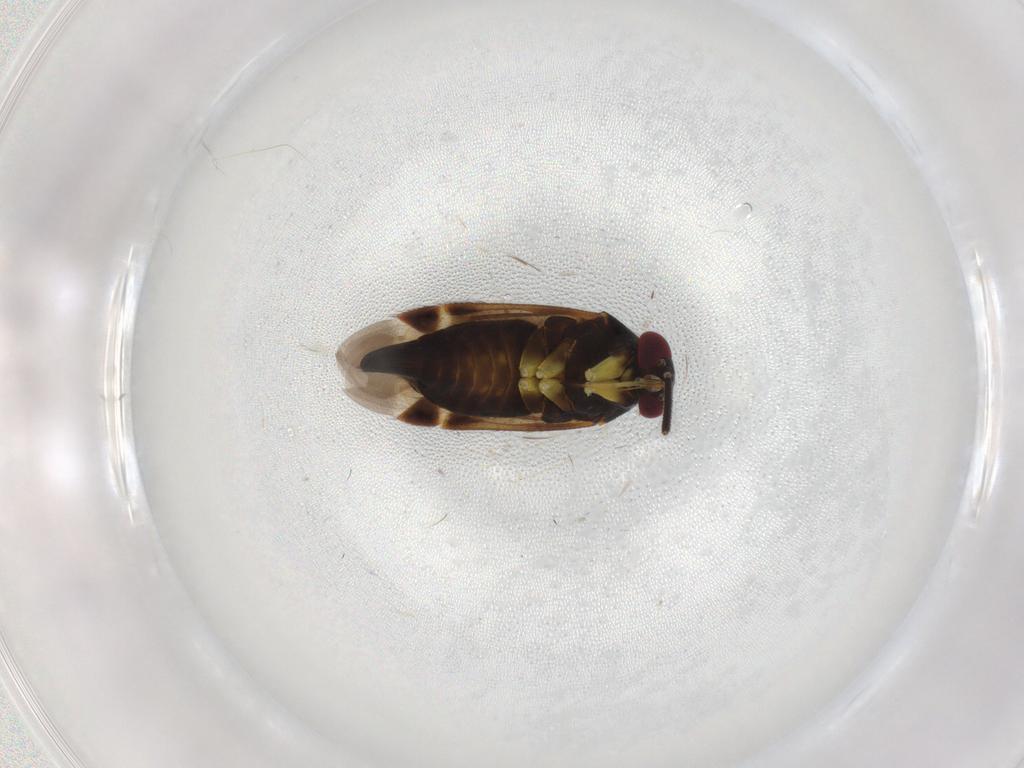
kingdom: Animalia
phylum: Arthropoda
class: Insecta
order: Hemiptera
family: Miridae
